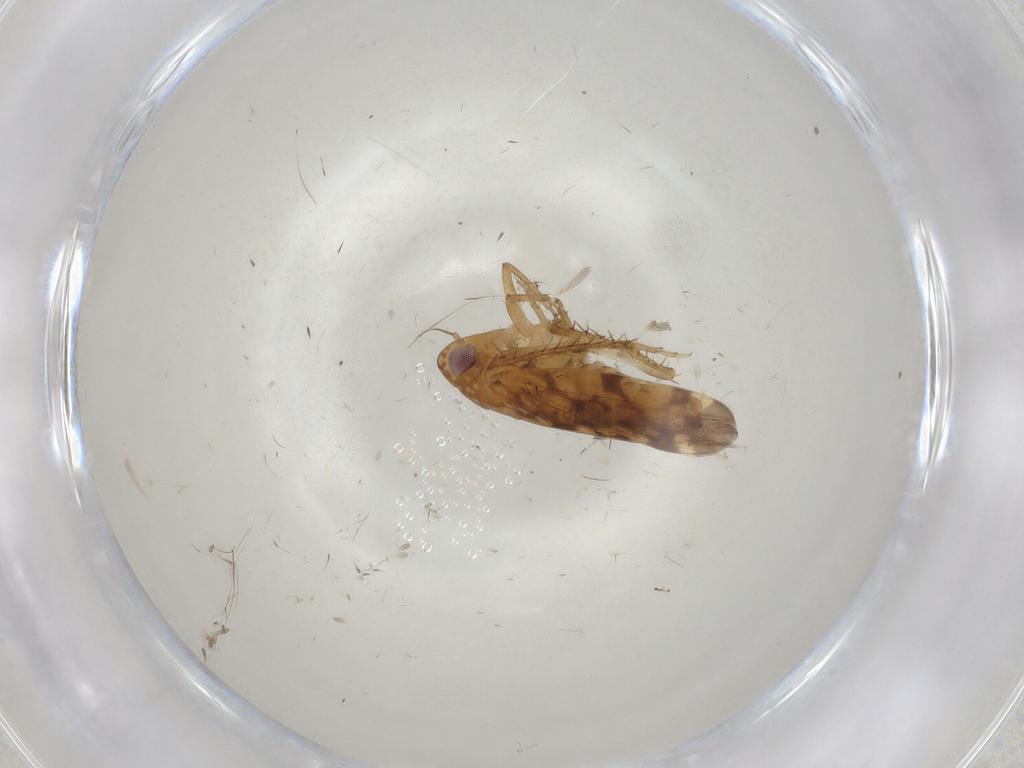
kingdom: Animalia
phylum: Arthropoda
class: Insecta
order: Hemiptera
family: Cicadellidae
